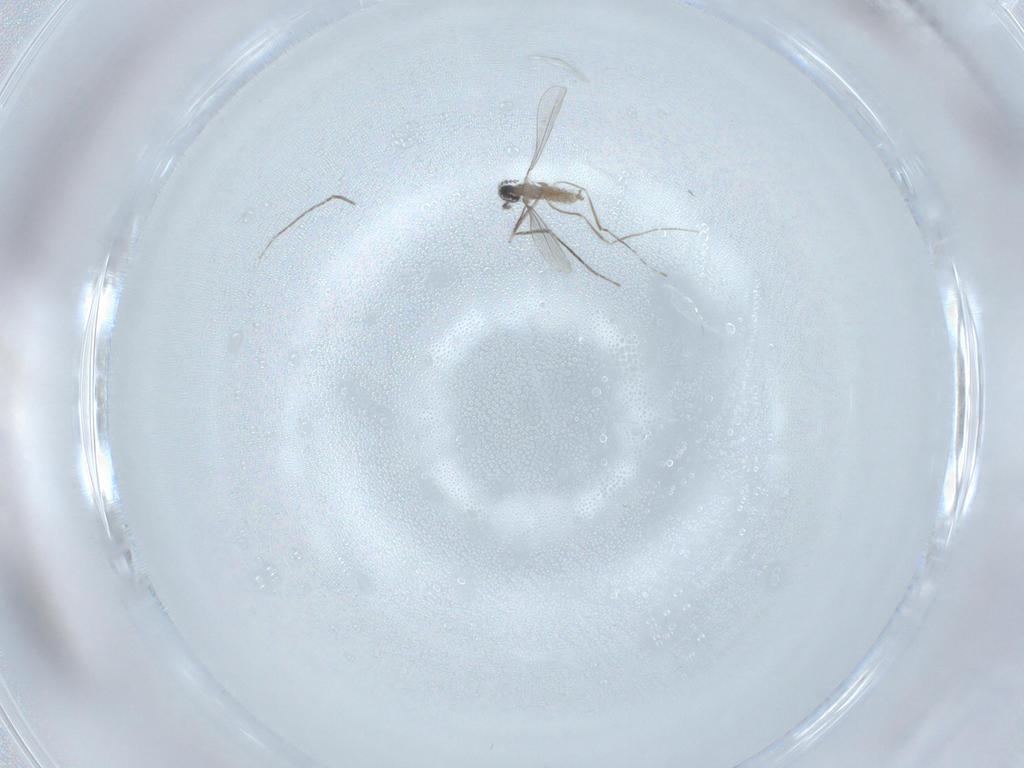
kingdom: Animalia
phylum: Arthropoda
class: Insecta
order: Diptera
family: Cecidomyiidae
